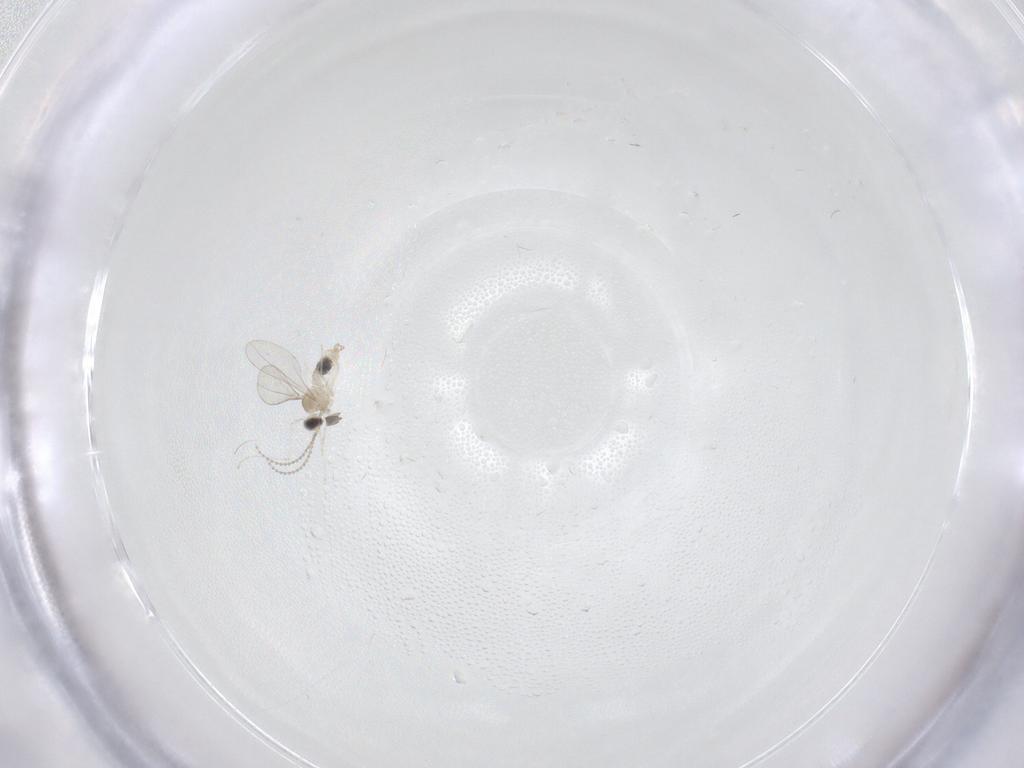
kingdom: Animalia
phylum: Arthropoda
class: Insecta
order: Diptera
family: Cecidomyiidae
